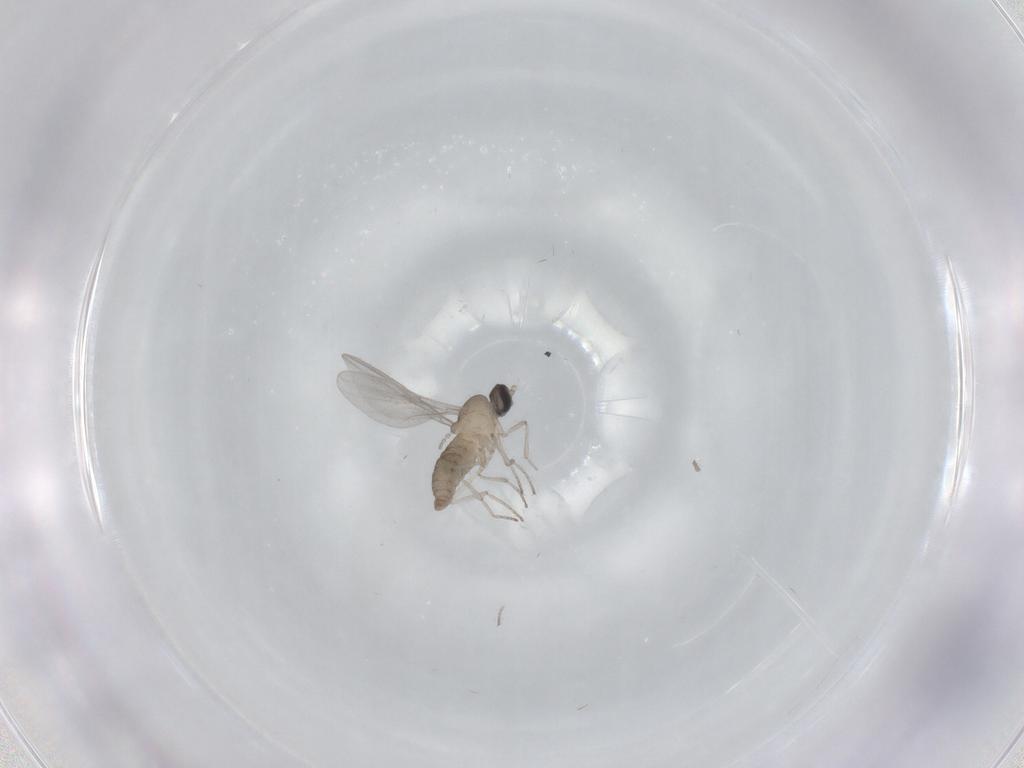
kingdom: Animalia
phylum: Arthropoda
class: Insecta
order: Diptera
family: Cecidomyiidae
